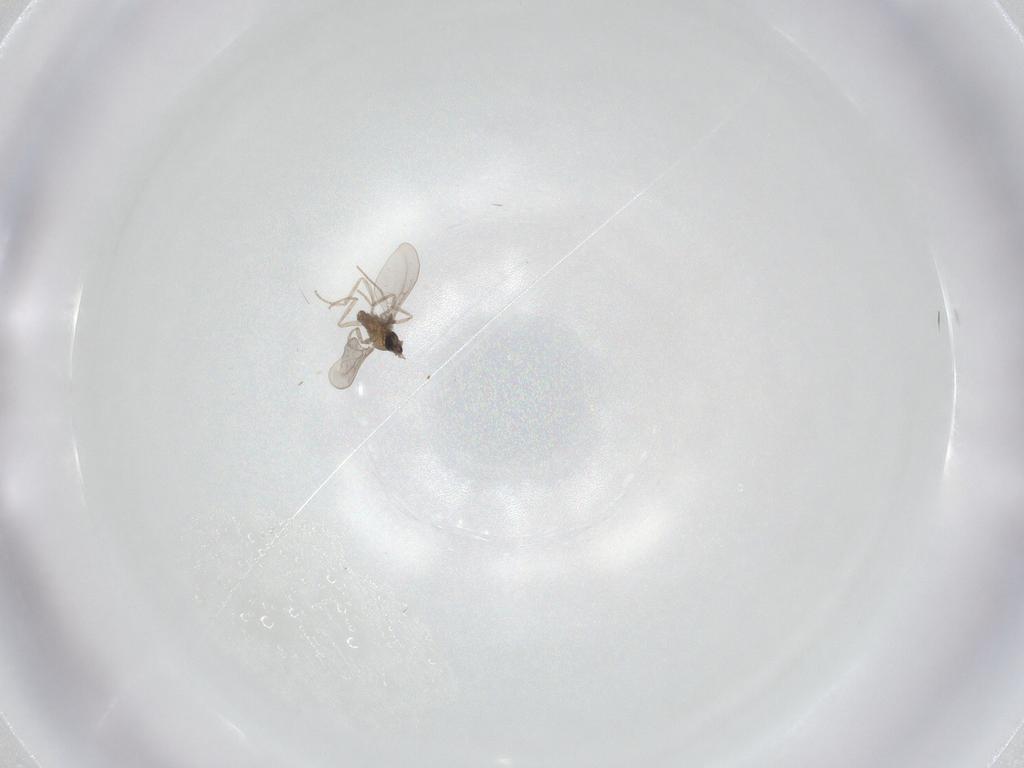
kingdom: Animalia
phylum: Arthropoda
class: Insecta
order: Diptera
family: Chironomidae
